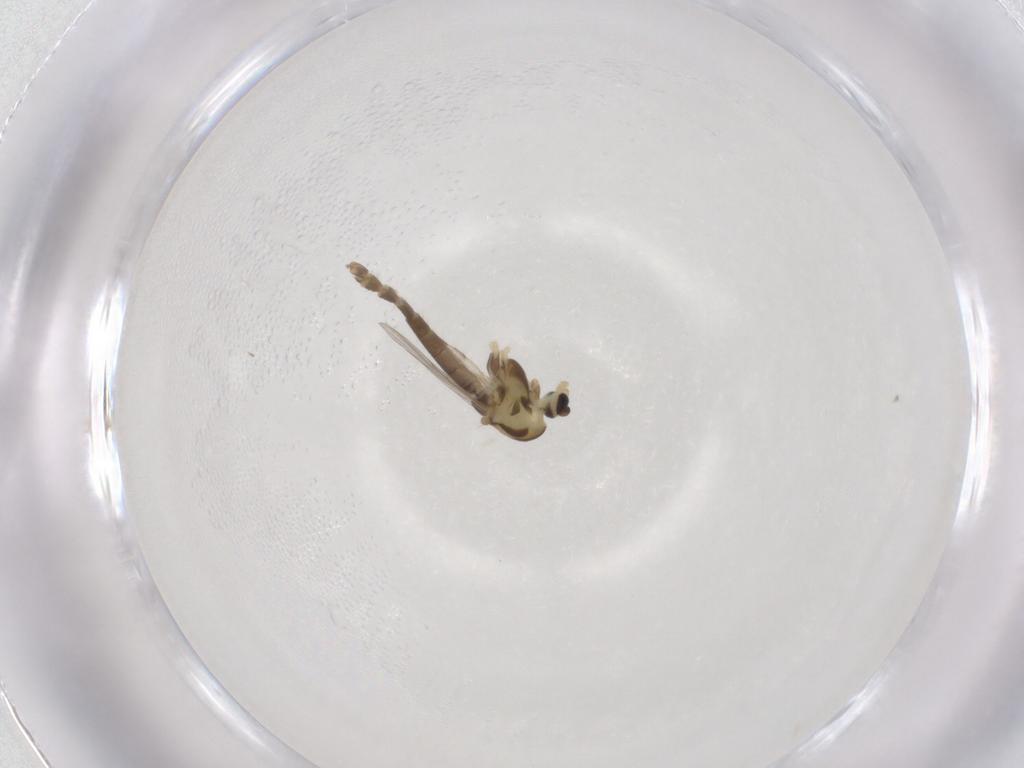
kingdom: Animalia
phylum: Arthropoda
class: Insecta
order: Diptera
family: Chironomidae
